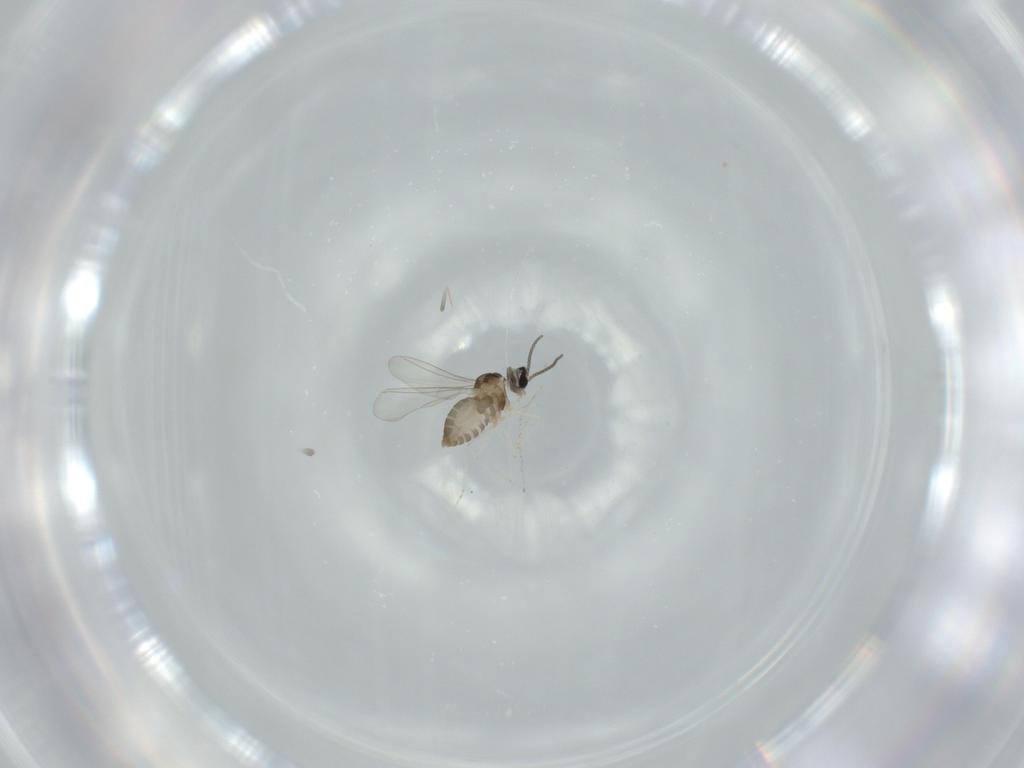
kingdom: Animalia
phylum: Arthropoda
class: Insecta
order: Diptera
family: Cecidomyiidae
